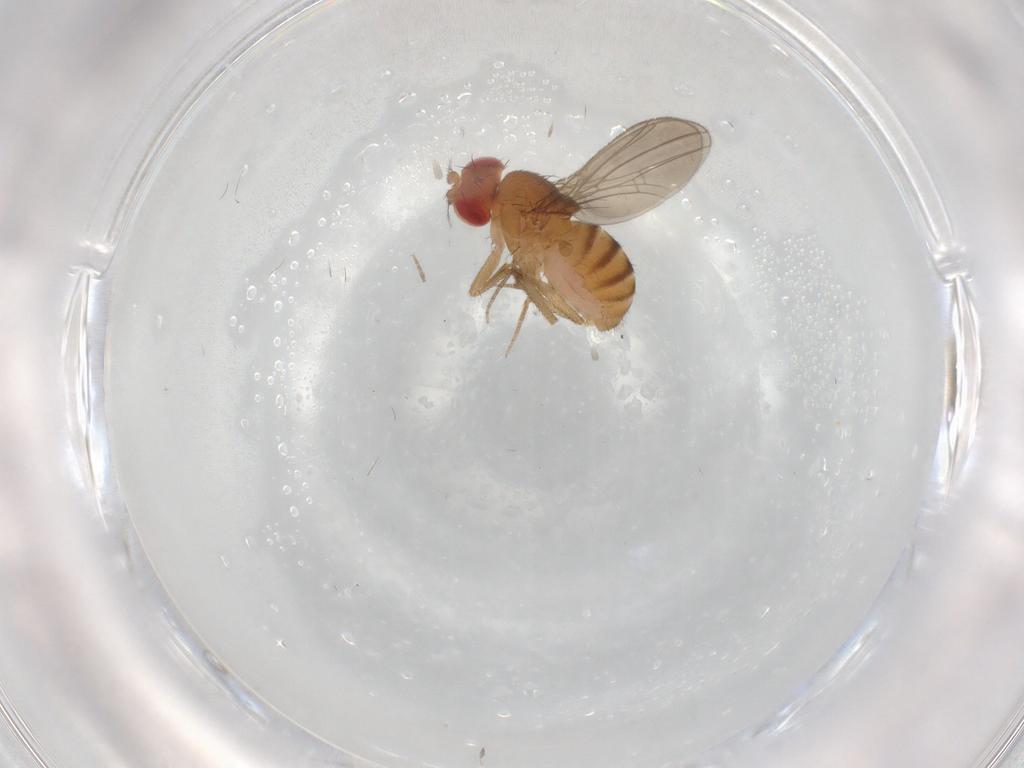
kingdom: Animalia
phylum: Arthropoda
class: Insecta
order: Diptera
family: Drosophilidae
